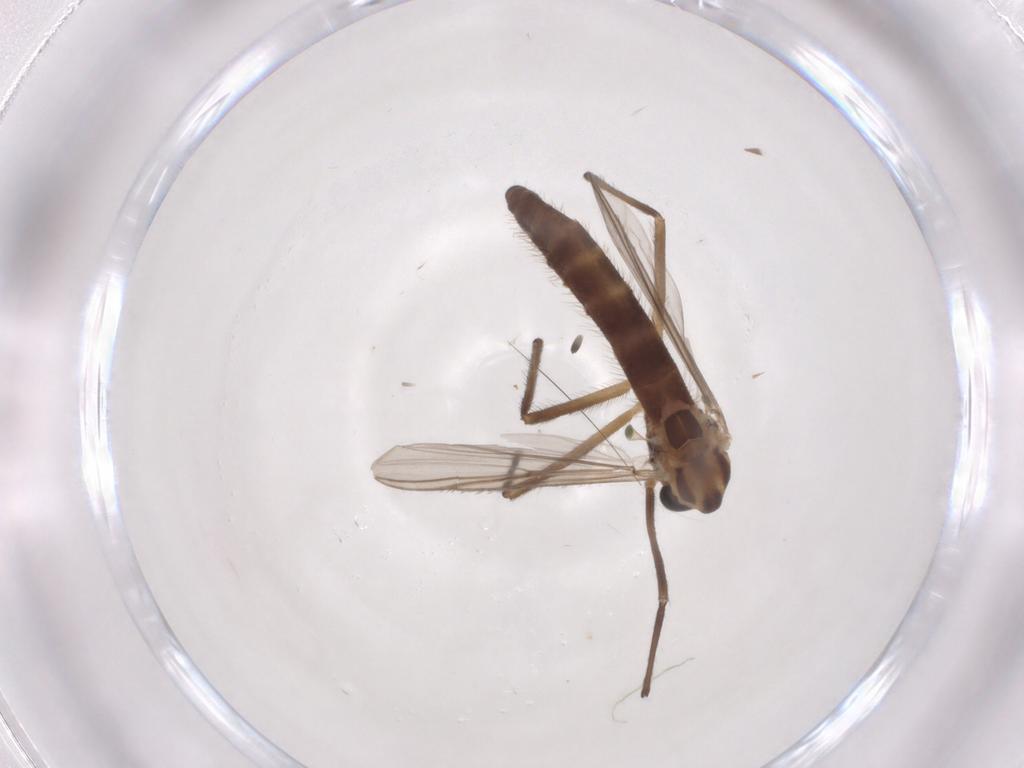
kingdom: Animalia
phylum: Arthropoda
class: Insecta
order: Diptera
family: Chironomidae
